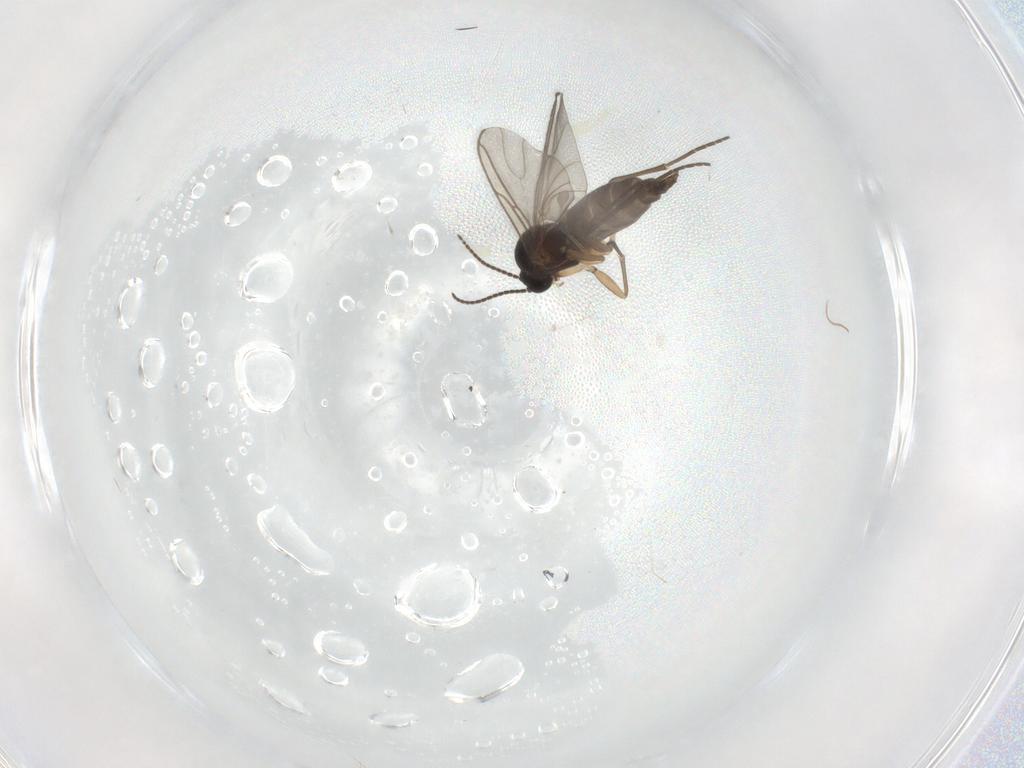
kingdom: Animalia
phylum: Arthropoda
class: Insecta
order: Diptera
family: Sciaridae
